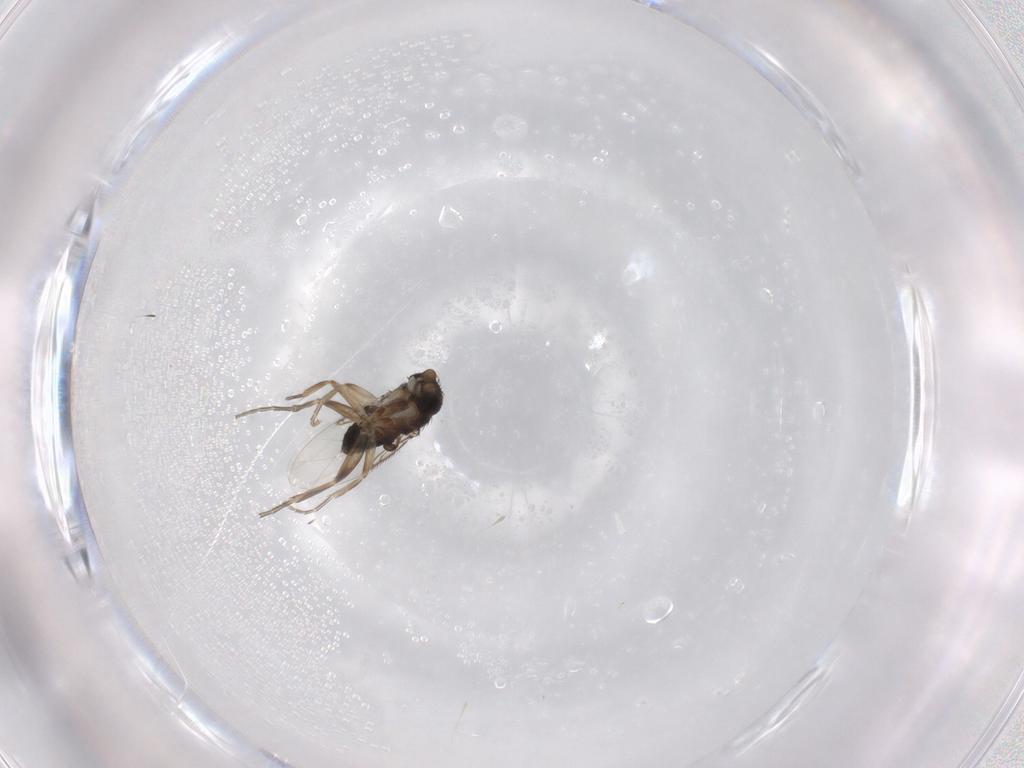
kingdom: Animalia
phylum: Arthropoda
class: Insecta
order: Diptera
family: Phoridae
